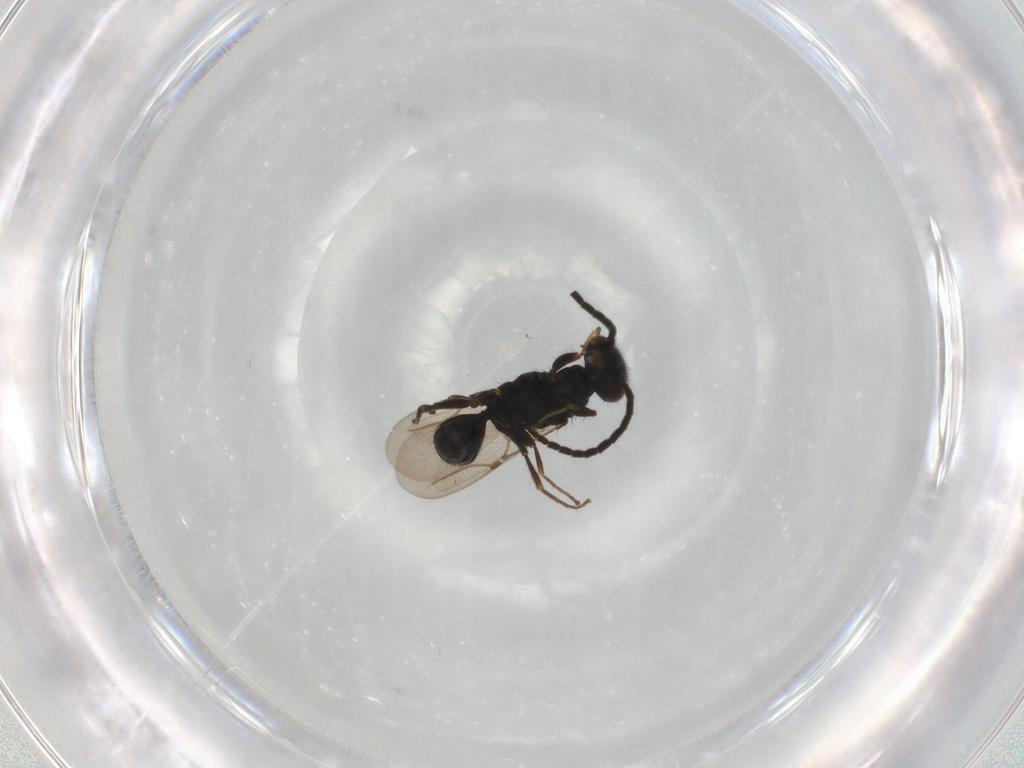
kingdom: Animalia
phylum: Arthropoda
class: Insecta
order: Hymenoptera
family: Bethylidae
